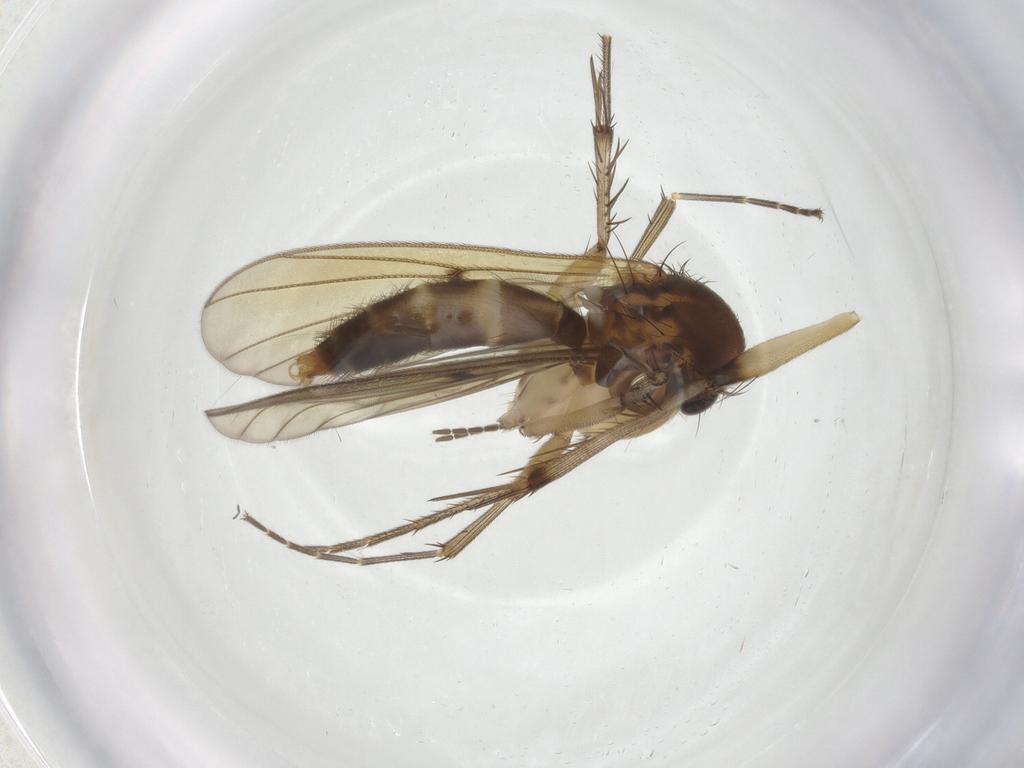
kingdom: Animalia
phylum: Arthropoda
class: Insecta
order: Diptera
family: Mycetophilidae
